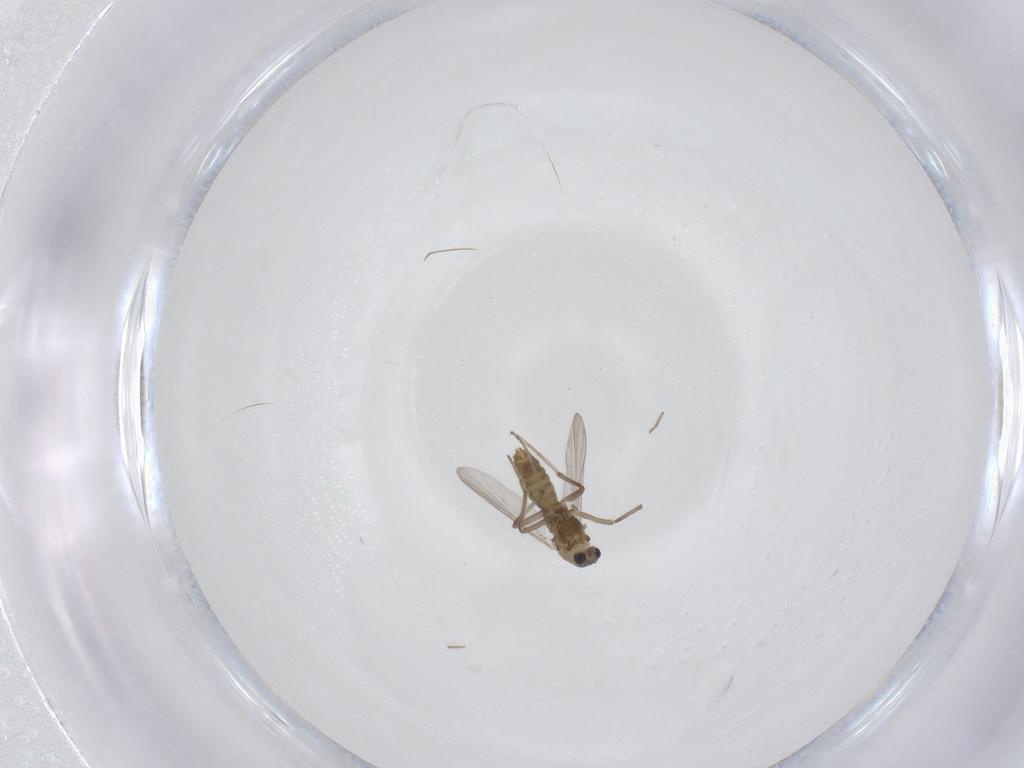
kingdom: Animalia
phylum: Arthropoda
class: Insecta
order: Diptera
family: Chironomidae
